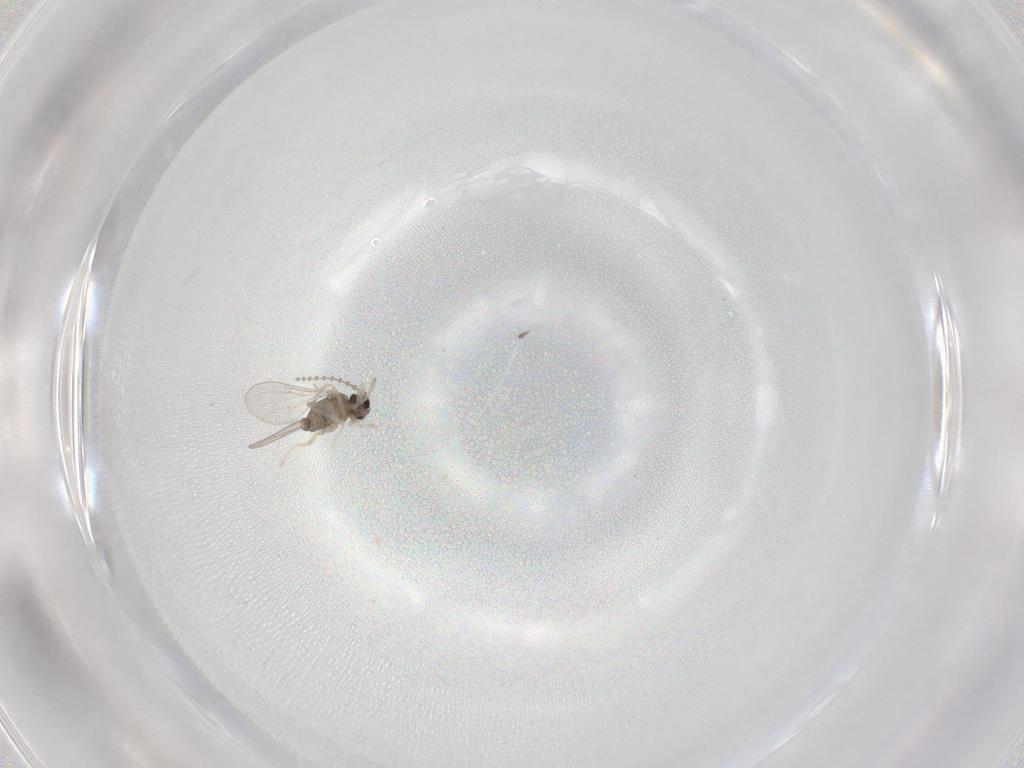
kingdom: Animalia
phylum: Arthropoda
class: Insecta
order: Diptera
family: Cecidomyiidae
